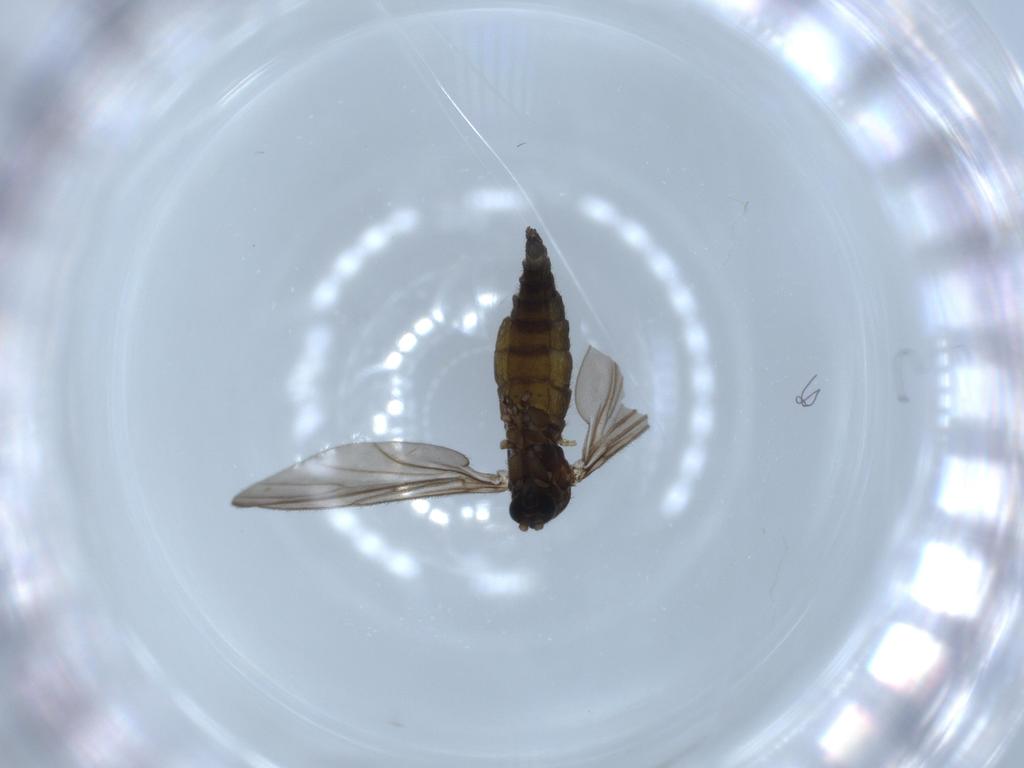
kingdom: Animalia
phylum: Arthropoda
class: Insecta
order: Diptera
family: Sciaridae
